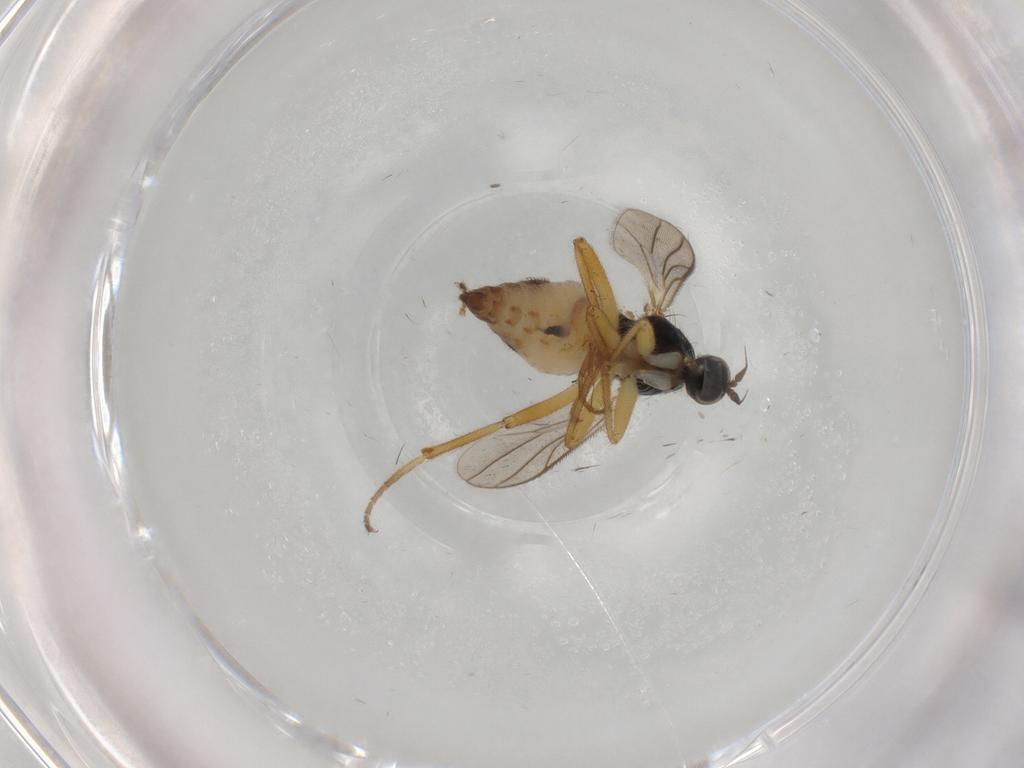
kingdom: Animalia
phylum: Arthropoda
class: Insecta
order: Diptera
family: Hybotidae
